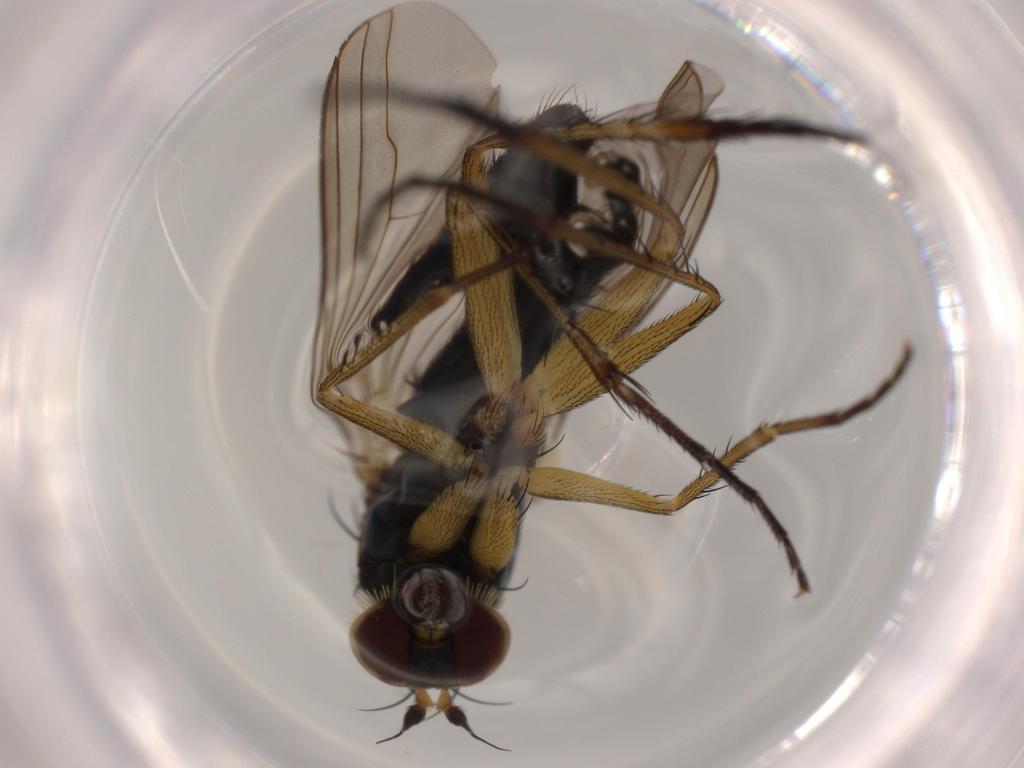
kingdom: Animalia
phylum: Arthropoda
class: Insecta
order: Diptera
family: Dolichopodidae
